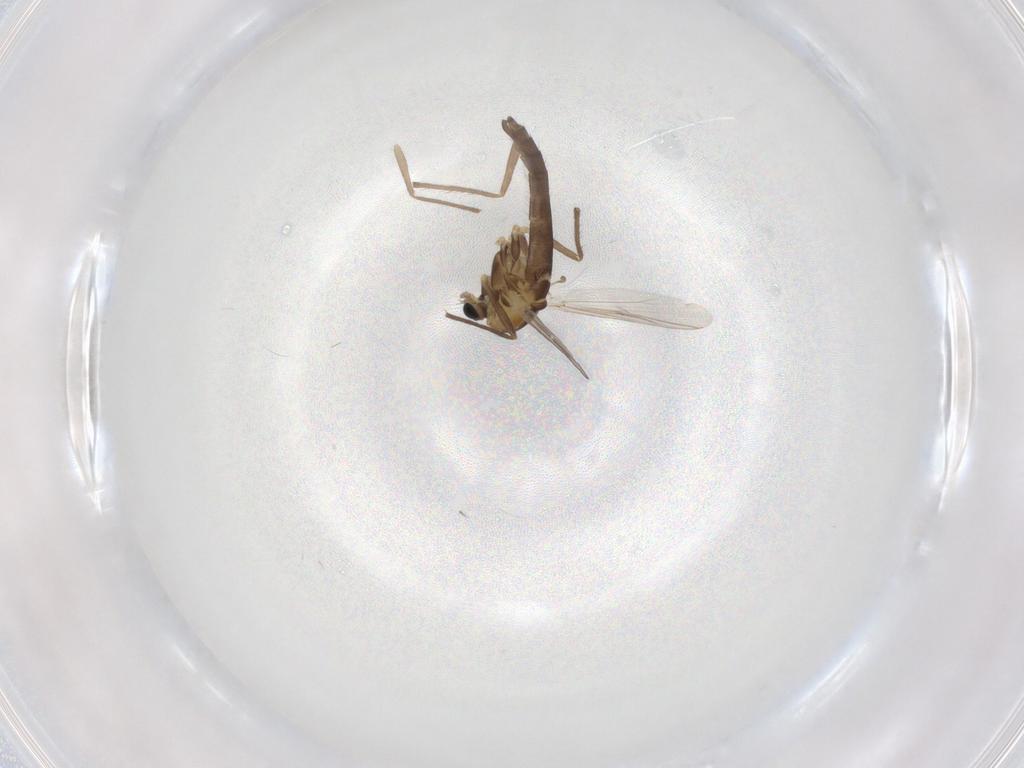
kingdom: Animalia
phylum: Arthropoda
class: Insecta
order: Diptera
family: Chironomidae
